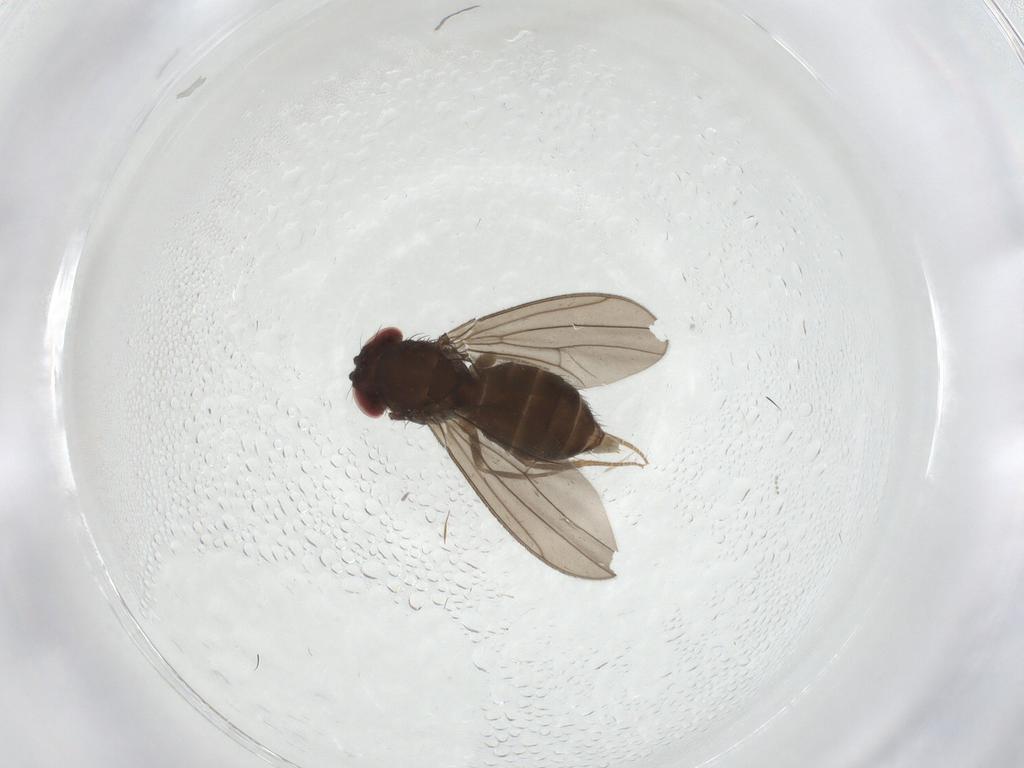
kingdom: Animalia
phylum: Arthropoda
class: Insecta
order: Diptera
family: Drosophilidae
